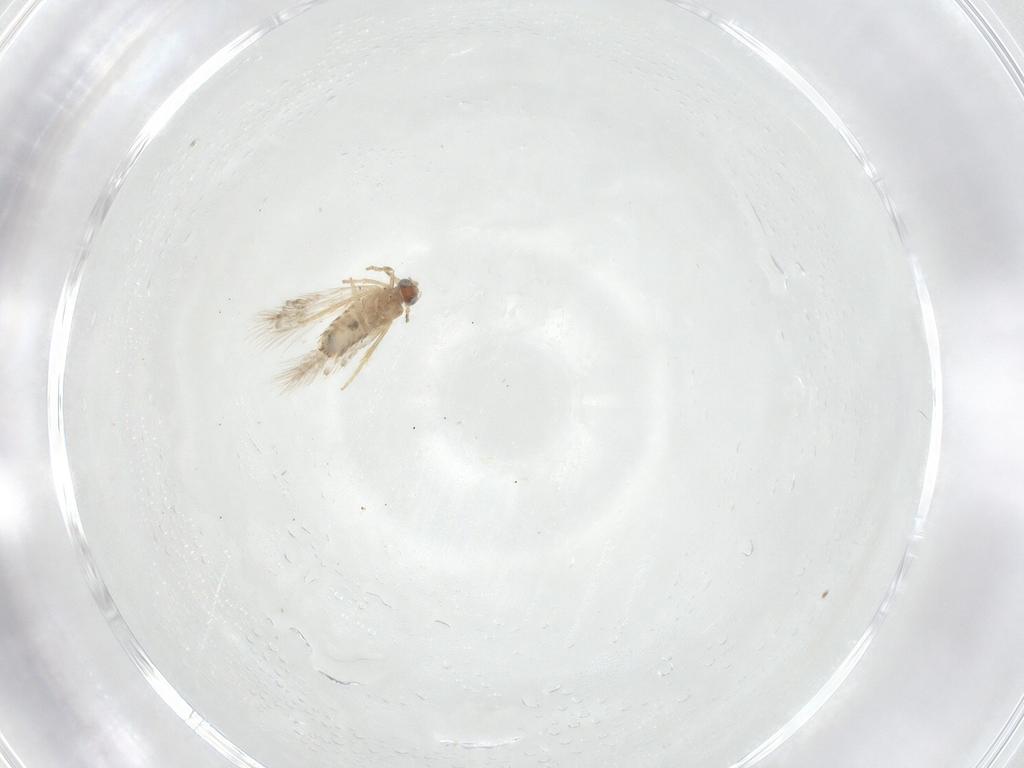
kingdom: Animalia
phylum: Arthropoda
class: Insecta
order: Lepidoptera
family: Nepticulidae
